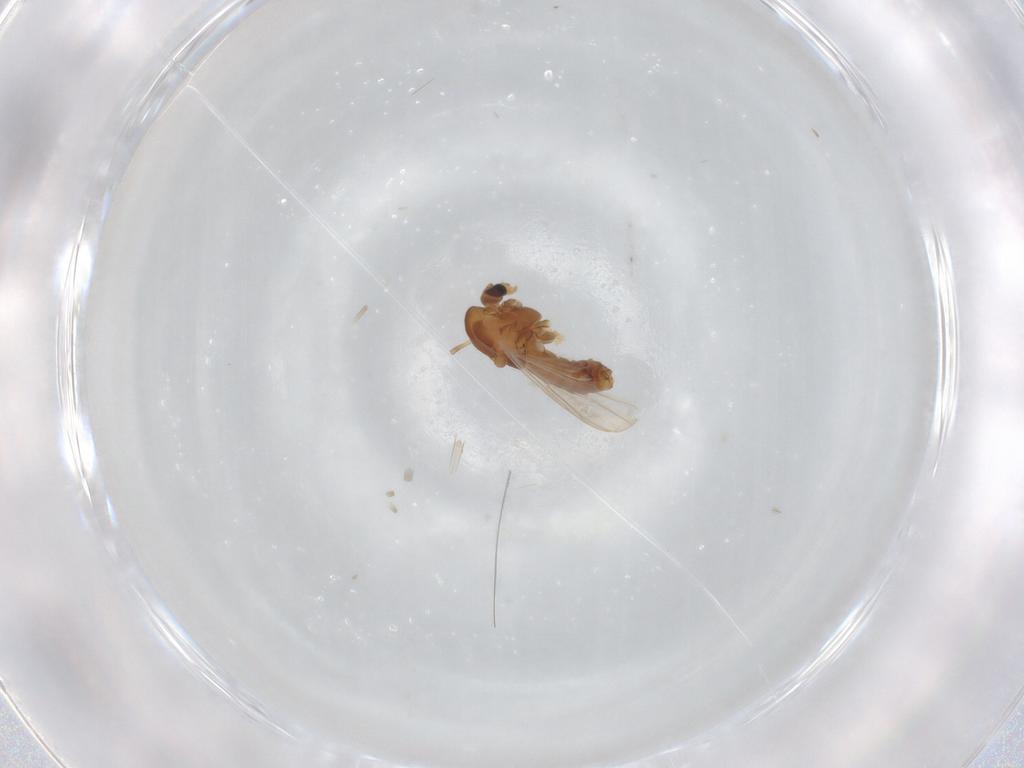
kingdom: Animalia
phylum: Arthropoda
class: Insecta
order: Diptera
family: Chironomidae
